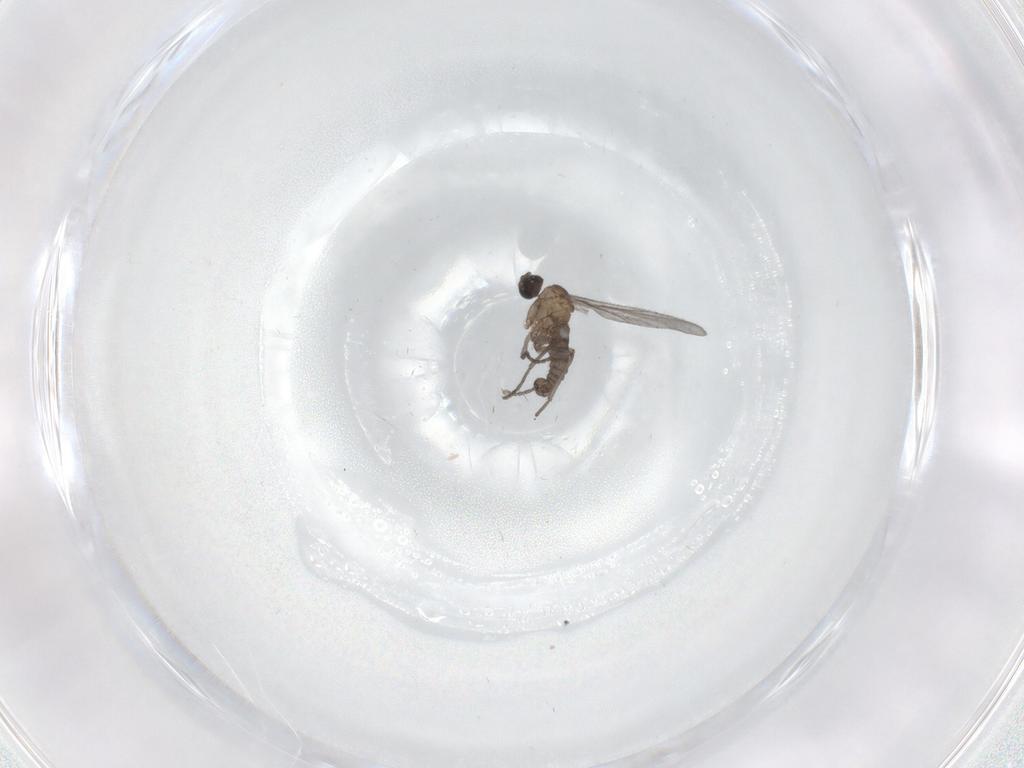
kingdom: Animalia
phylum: Arthropoda
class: Insecta
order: Diptera
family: Sciaridae
